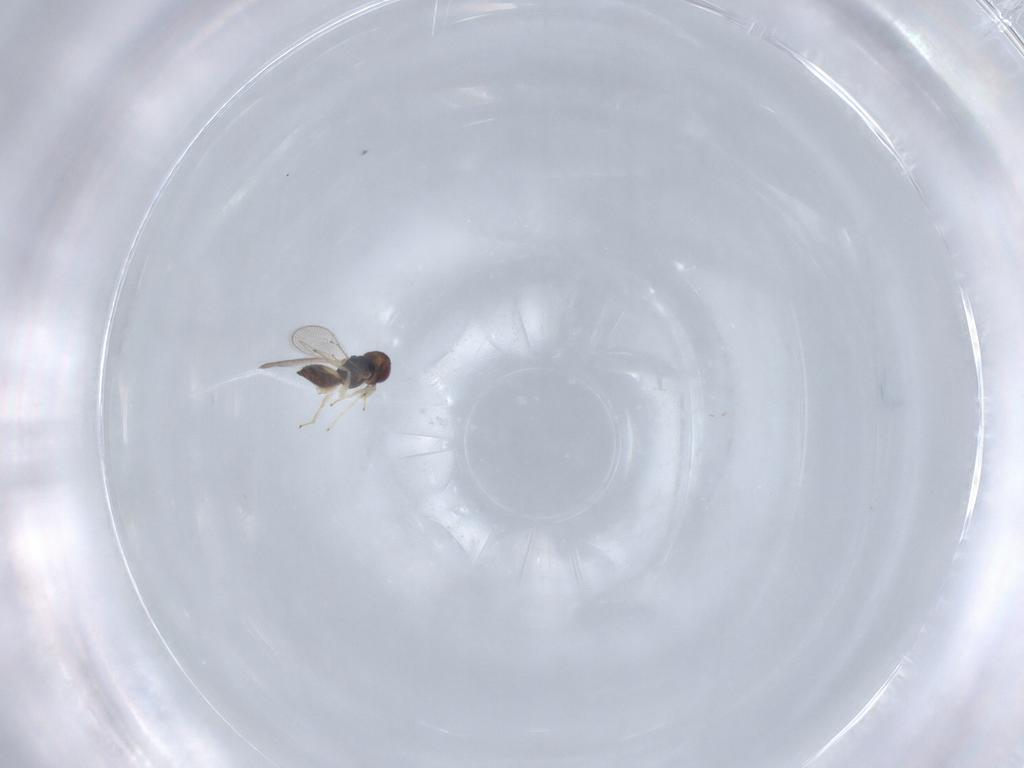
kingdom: Animalia
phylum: Arthropoda
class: Insecta
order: Hymenoptera
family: Eulophidae
